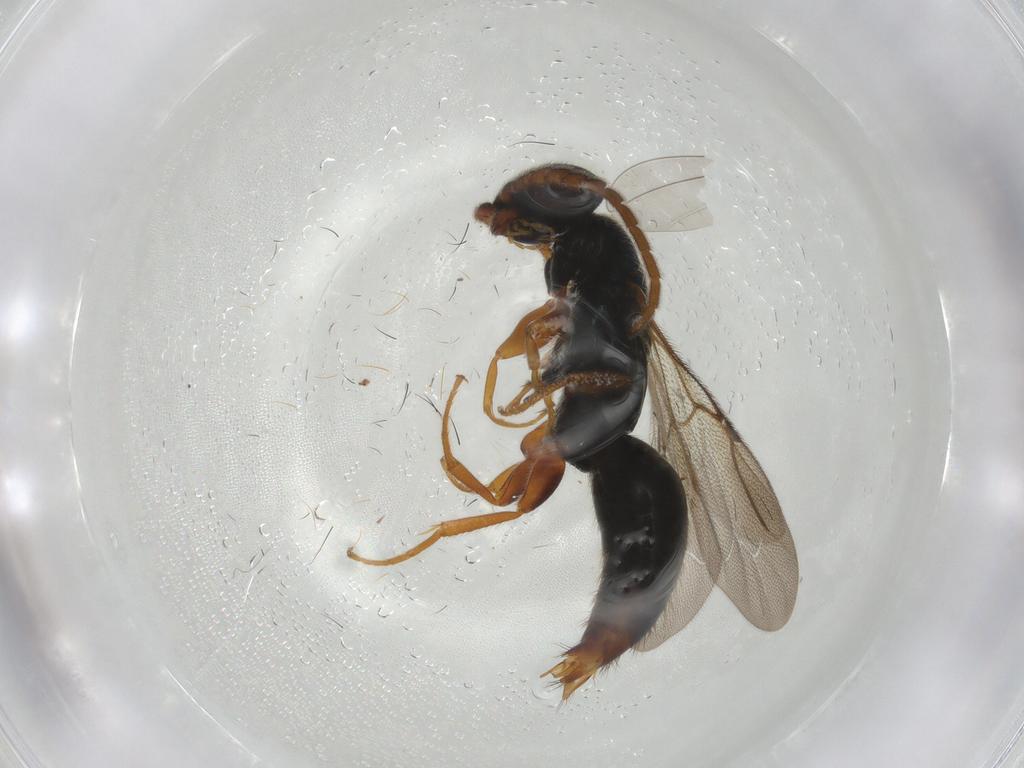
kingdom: Animalia
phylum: Arthropoda
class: Insecta
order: Hymenoptera
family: Bethylidae
